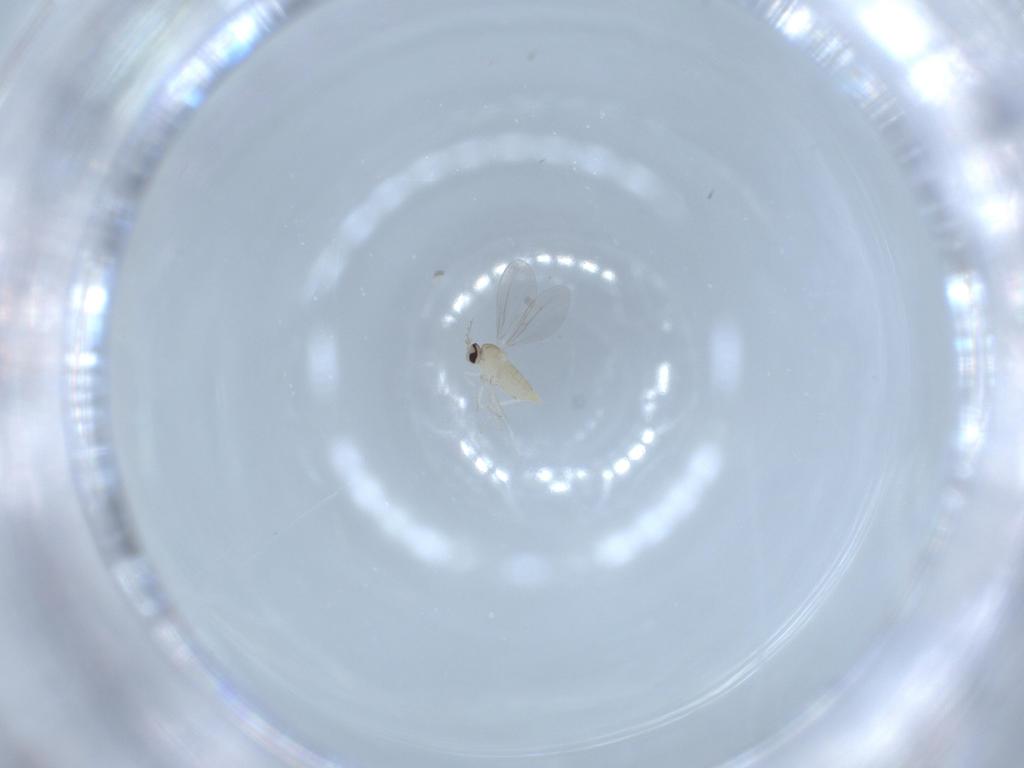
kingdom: Animalia
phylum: Arthropoda
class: Insecta
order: Diptera
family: Cecidomyiidae
